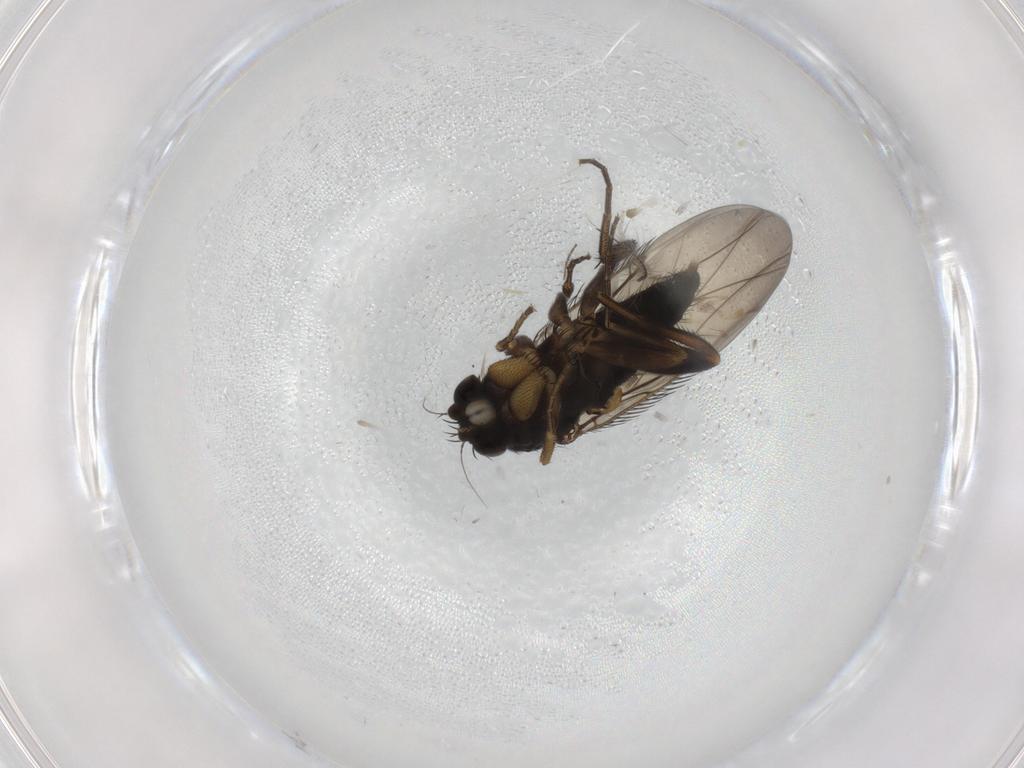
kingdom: Animalia
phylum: Arthropoda
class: Insecta
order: Diptera
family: Phoridae
